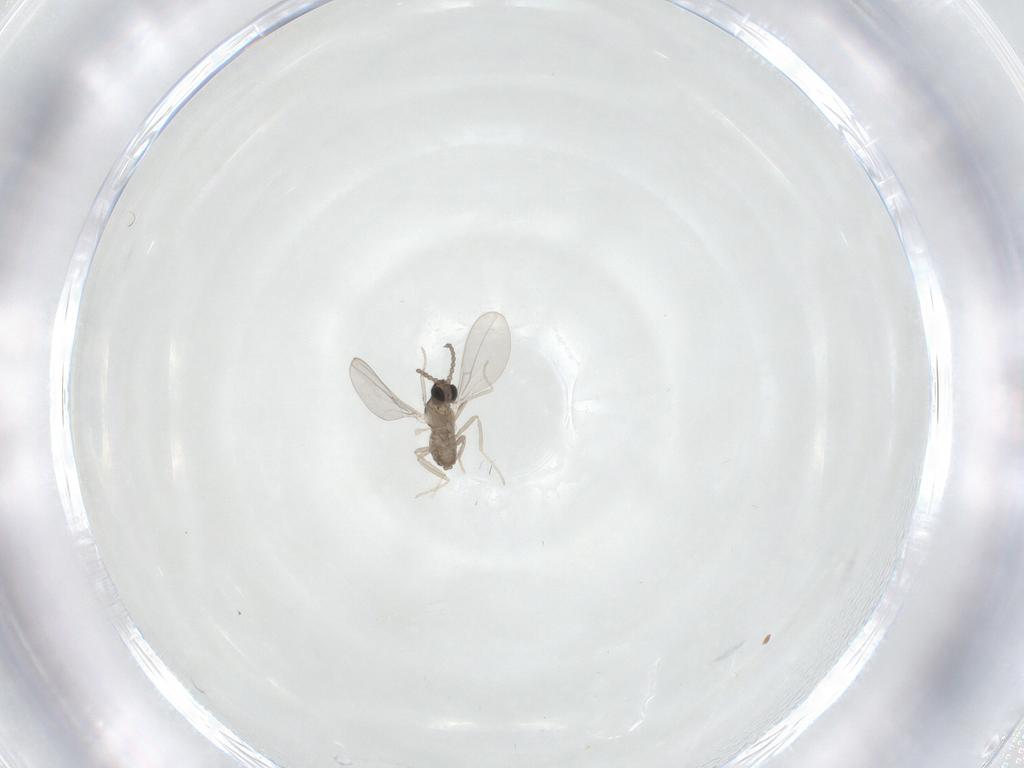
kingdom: Animalia
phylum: Arthropoda
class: Insecta
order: Diptera
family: Cecidomyiidae
